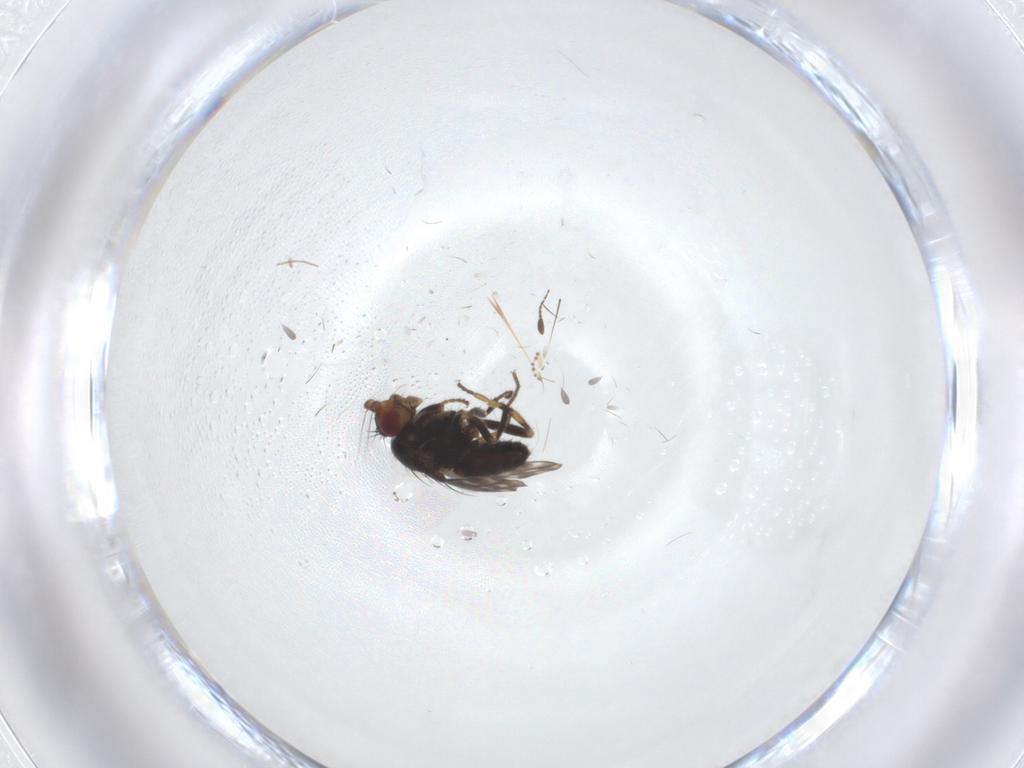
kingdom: Animalia
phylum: Arthropoda
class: Insecta
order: Diptera
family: Sphaeroceridae
